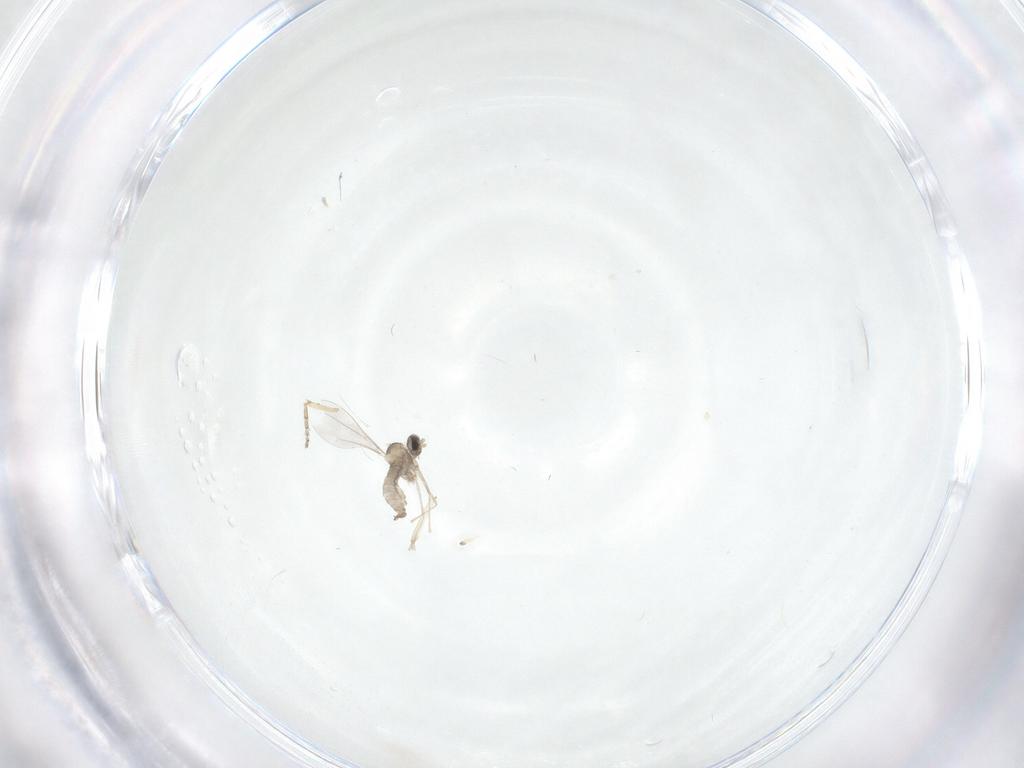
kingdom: Animalia
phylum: Arthropoda
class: Insecta
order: Diptera
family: Psychodidae
